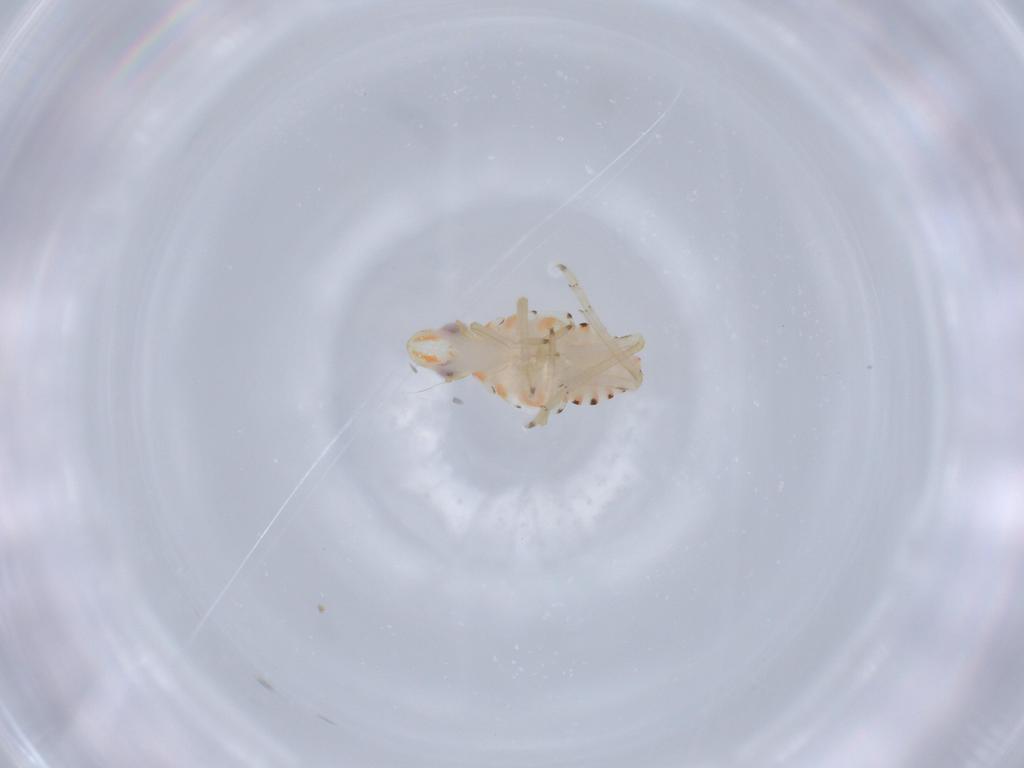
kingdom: Animalia
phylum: Arthropoda
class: Insecta
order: Hemiptera
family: Tropiduchidae
